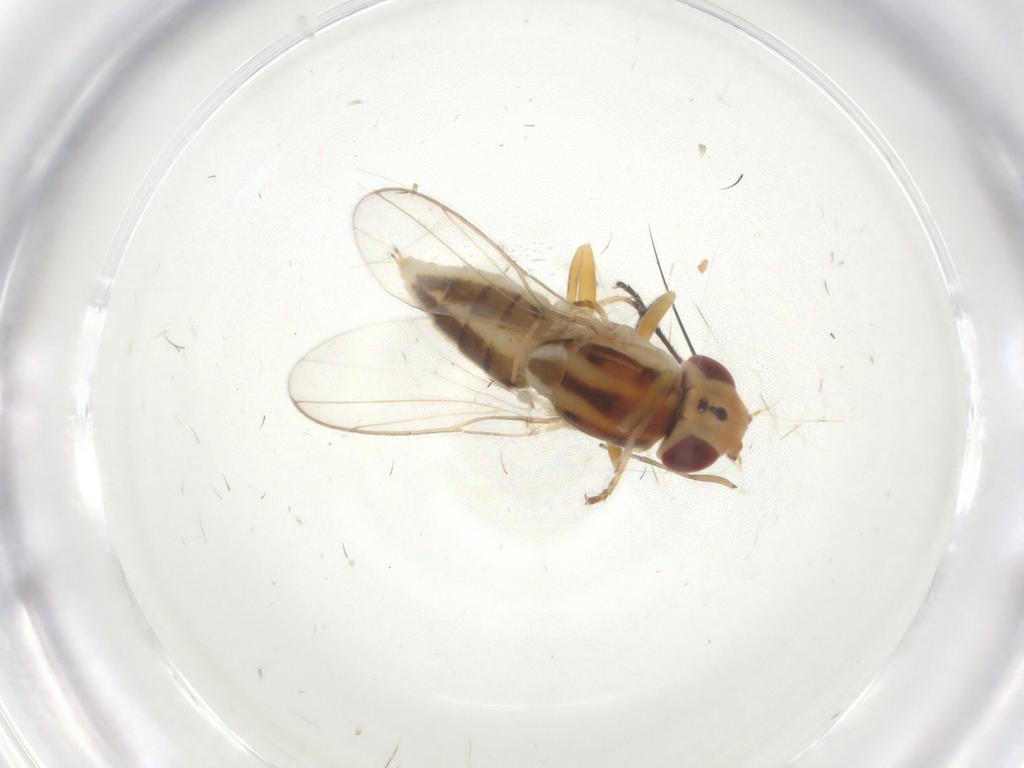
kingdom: Animalia
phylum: Arthropoda
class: Insecta
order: Diptera
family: Chloropidae
